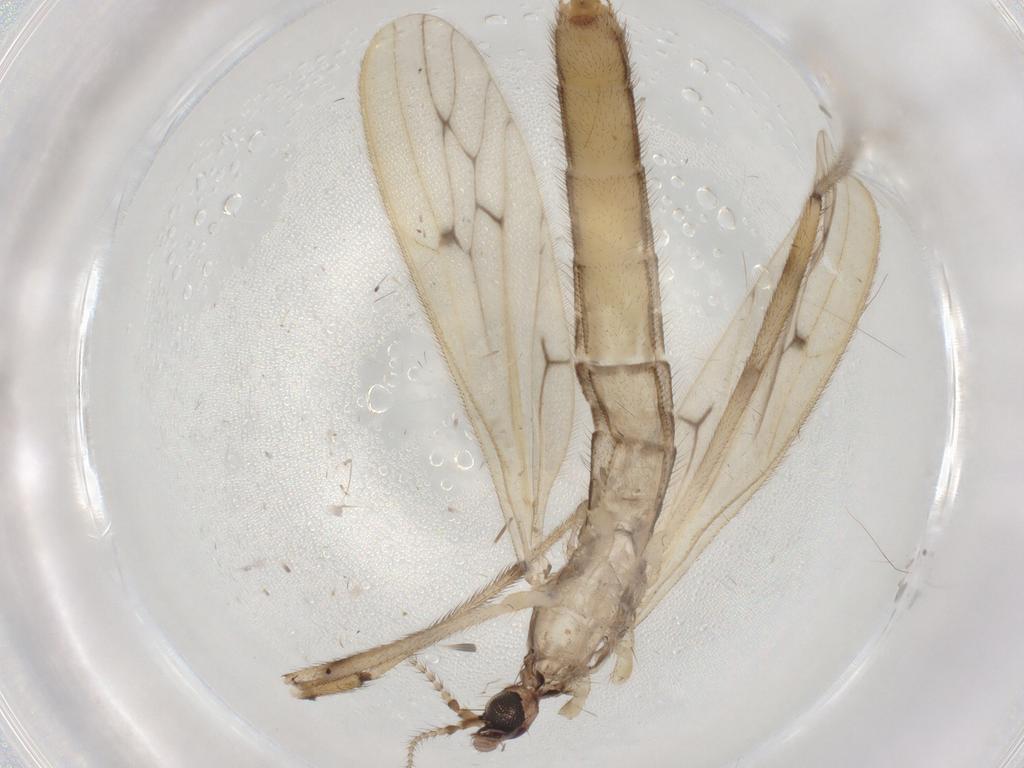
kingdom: Animalia
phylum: Arthropoda
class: Insecta
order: Diptera
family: Limoniidae
